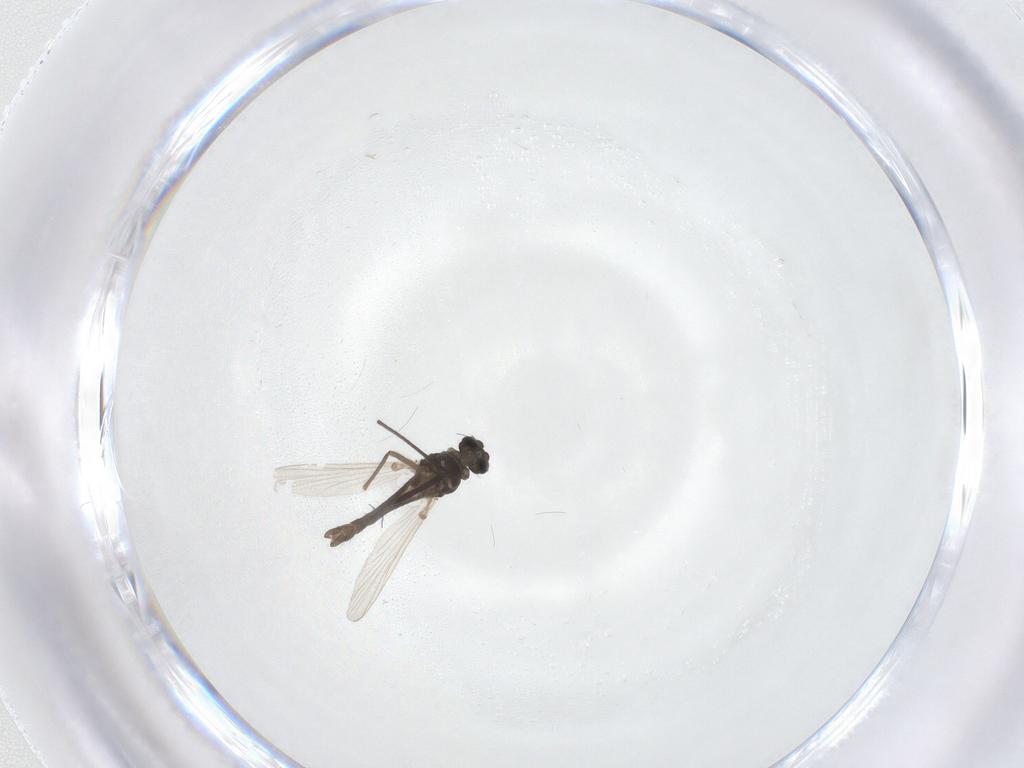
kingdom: Animalia
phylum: Arthropoda
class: Insecta
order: Diptera
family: Chironomidae
